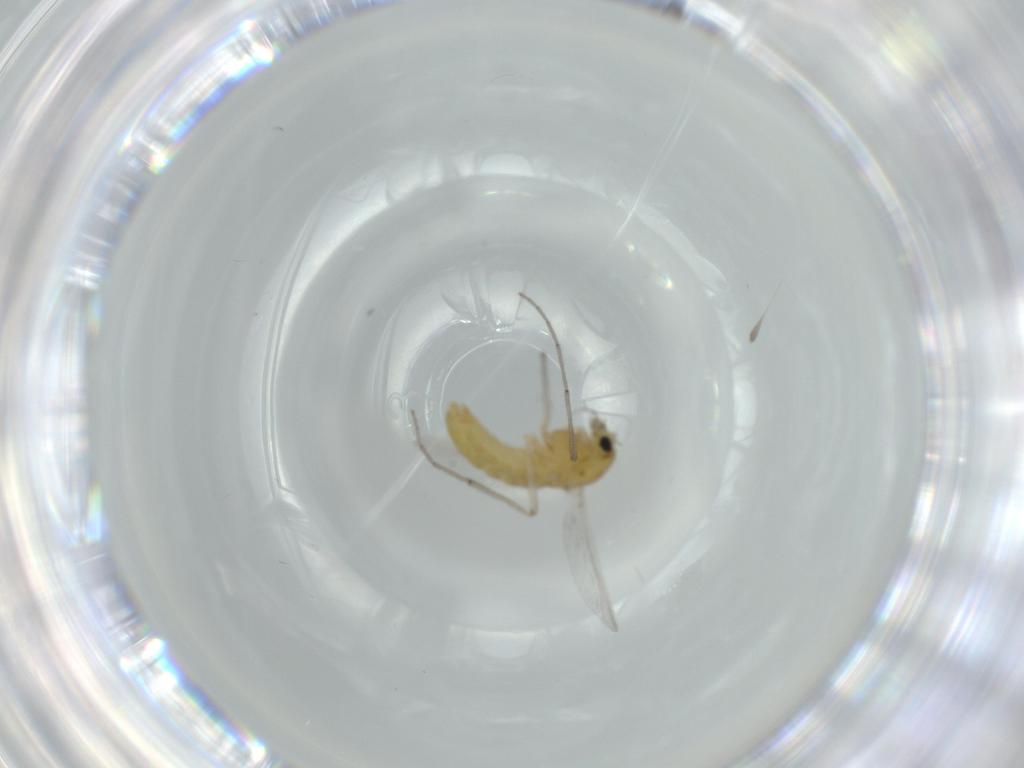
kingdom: Animalia
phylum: Arthropoda
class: Insecta
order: Diptera
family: Chironomidae
